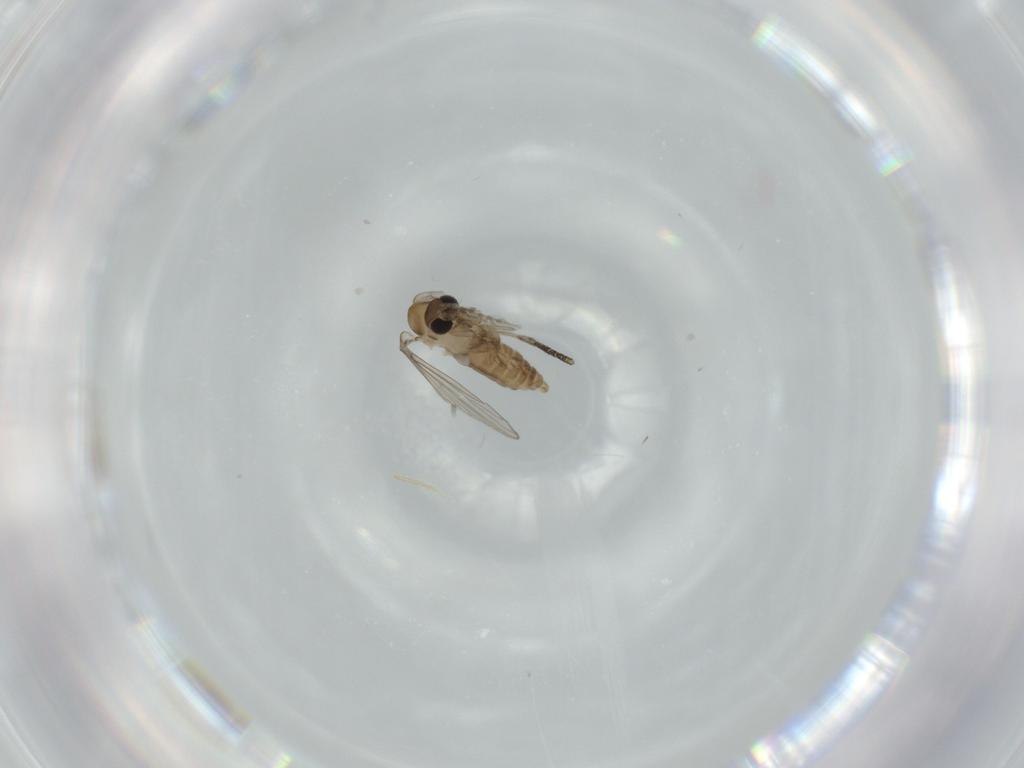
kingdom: Animalia
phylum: Arthropoda
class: Insecta
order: Diptera
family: Psychodidae
